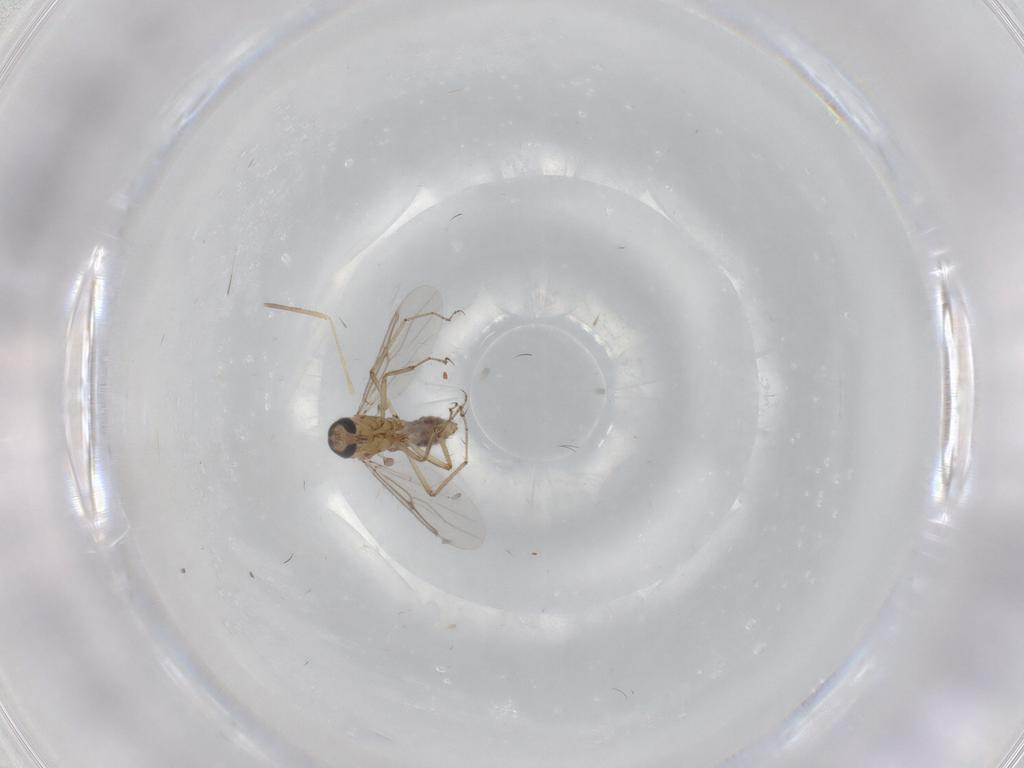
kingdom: Animalia
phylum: Arthropoda
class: Insecta
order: Diptera
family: Cecidomyiidae
